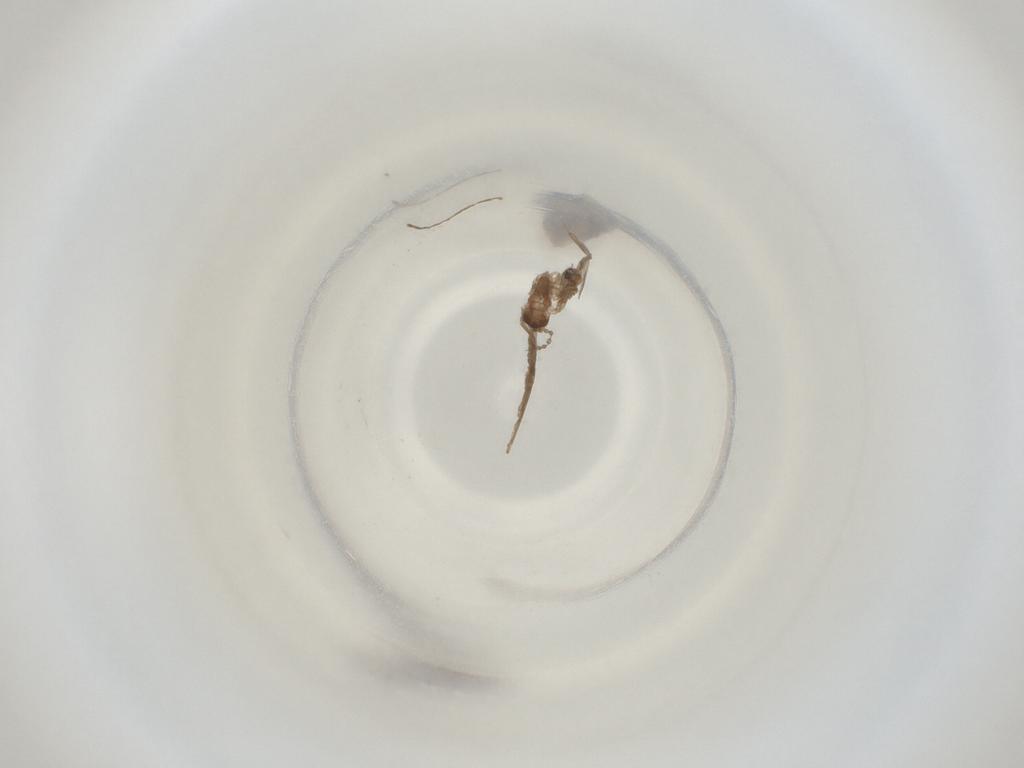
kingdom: Animalia
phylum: Arthropoda
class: Insecta
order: Diptera
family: Cecidomyiidae
